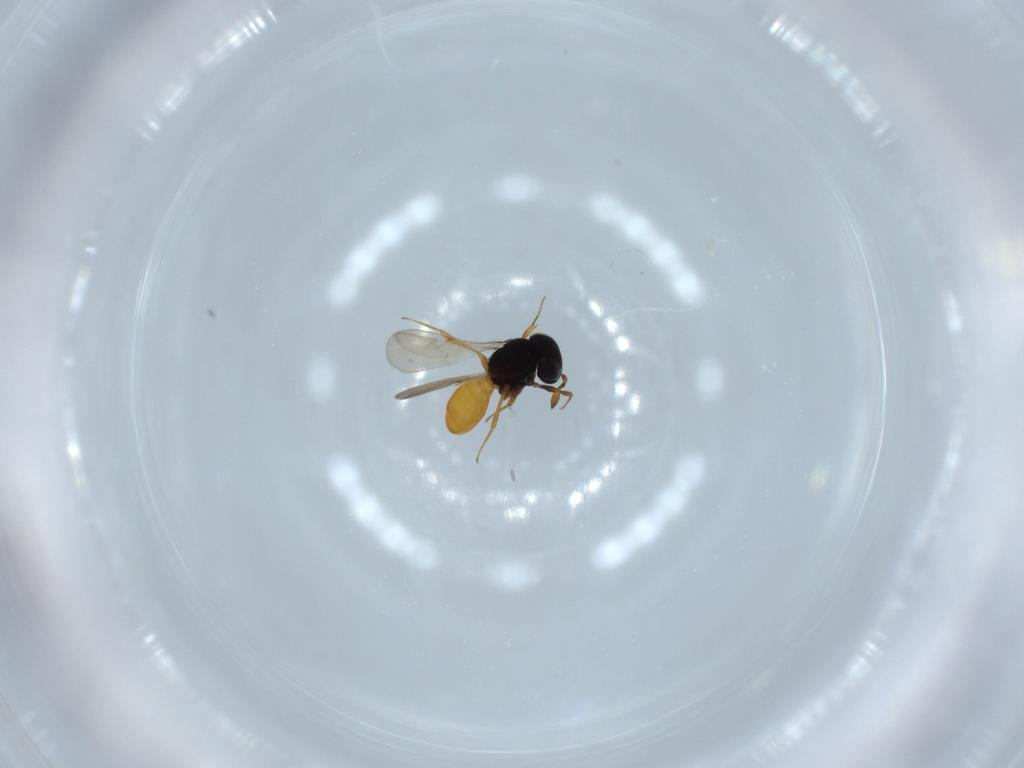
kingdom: Animalia
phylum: Arthropoda
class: Insecta
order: Hymenoptera
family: Scelionidae
